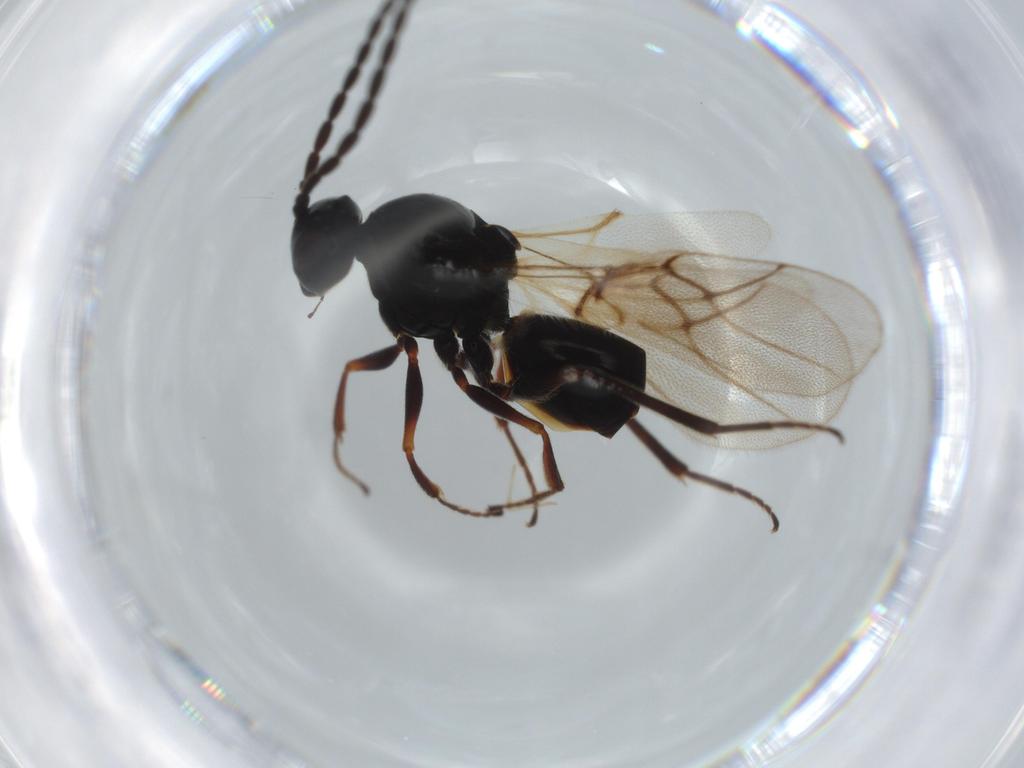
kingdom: Animalia
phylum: Arthropoda
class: Insecta
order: Hymenoptera
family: Figitidae
